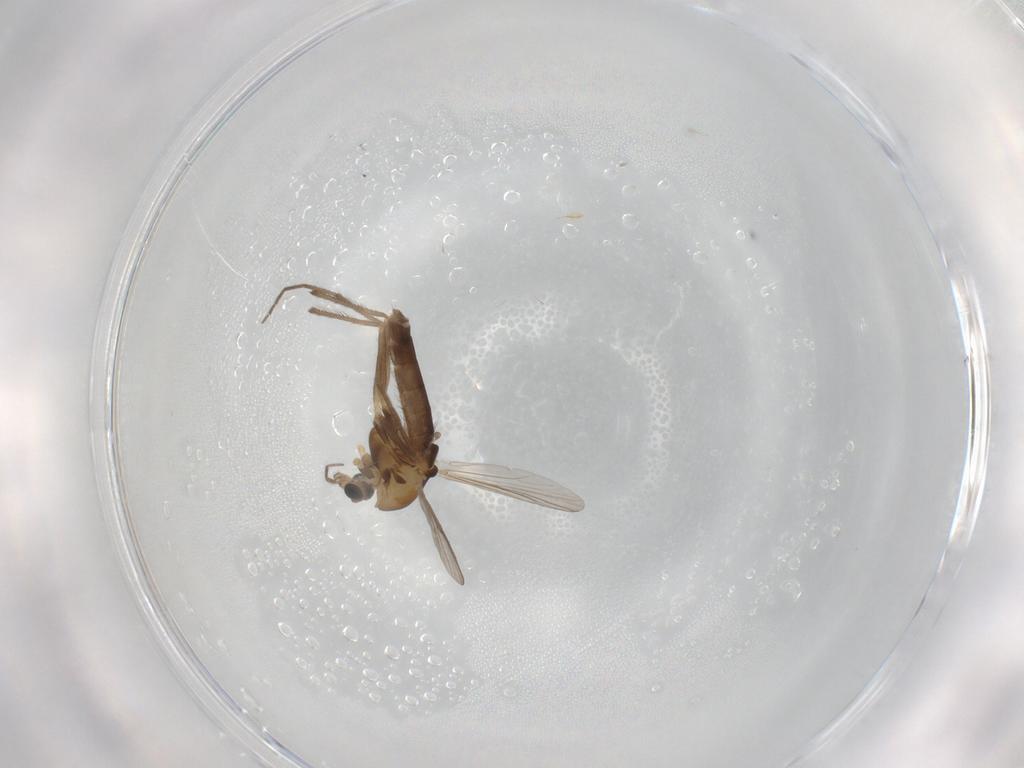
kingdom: Animalia
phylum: Arthropoda
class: Insecta
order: Diptera
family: Chironomidae
